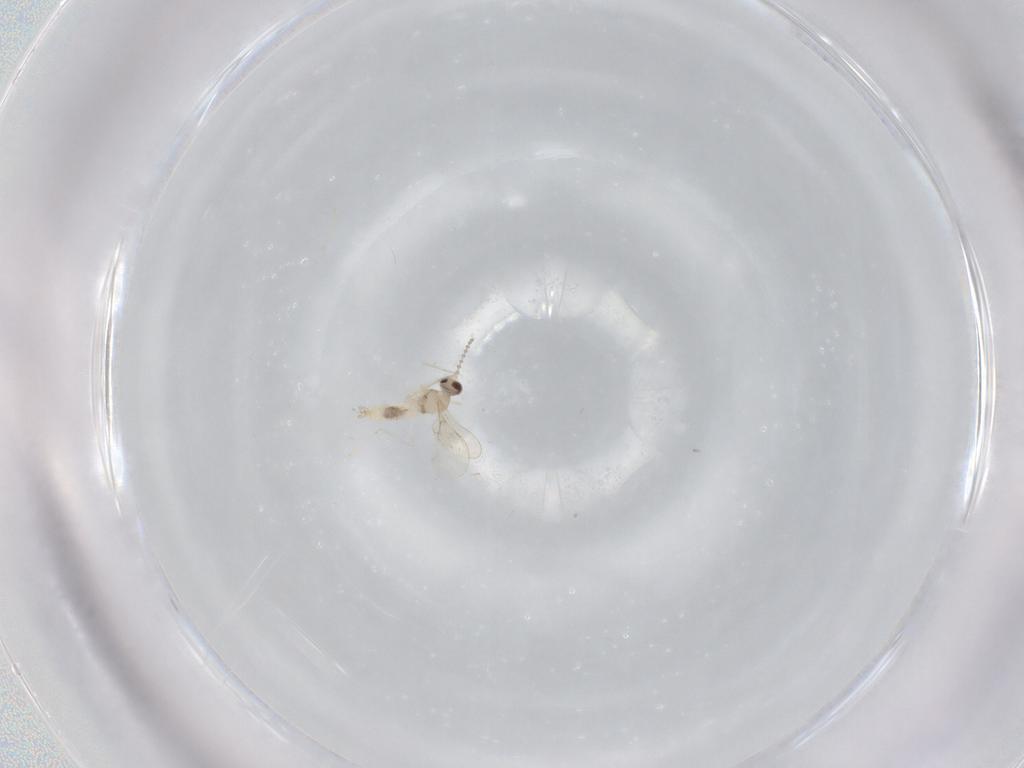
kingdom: Animalia
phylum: Arthropoda
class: Insecta
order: Diptera
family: Cecidomyiidae
